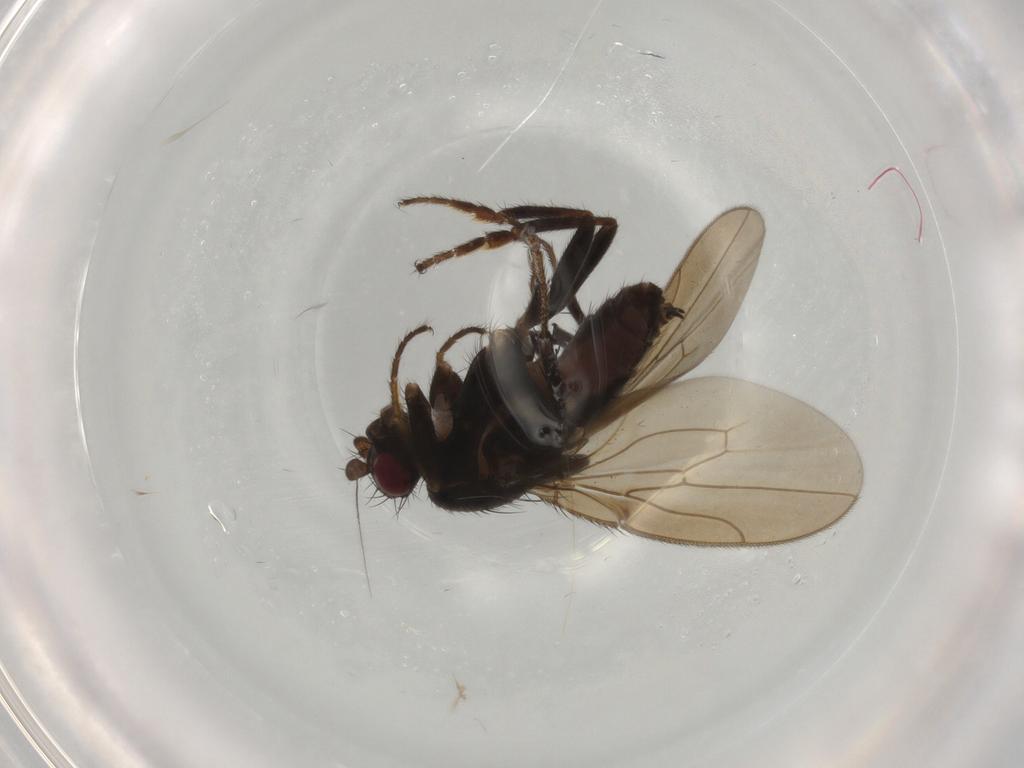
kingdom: Animalia
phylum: Arthropoda
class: Insecta
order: Diptera
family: Sphaeroceridae
